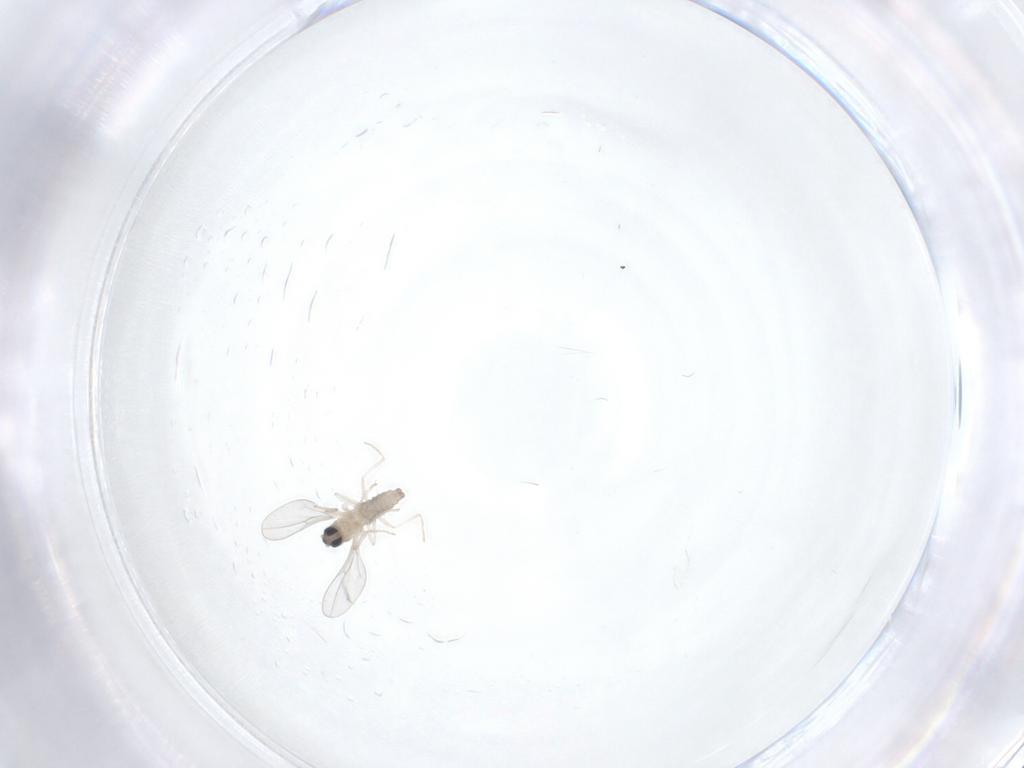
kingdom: Animalia
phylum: Arthropoda
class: Insecta
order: Diptera
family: Cecidomyiidae
